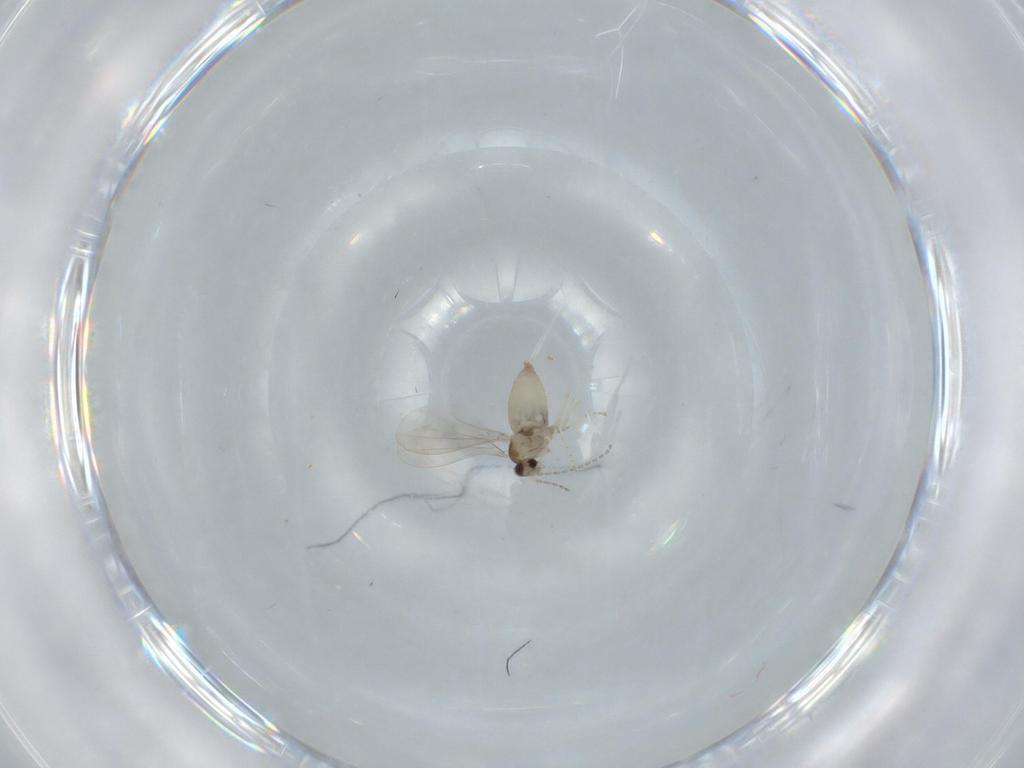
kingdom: Animalia
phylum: Arthropoda
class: Insecta
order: Diptera
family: Cecidomyiidae
